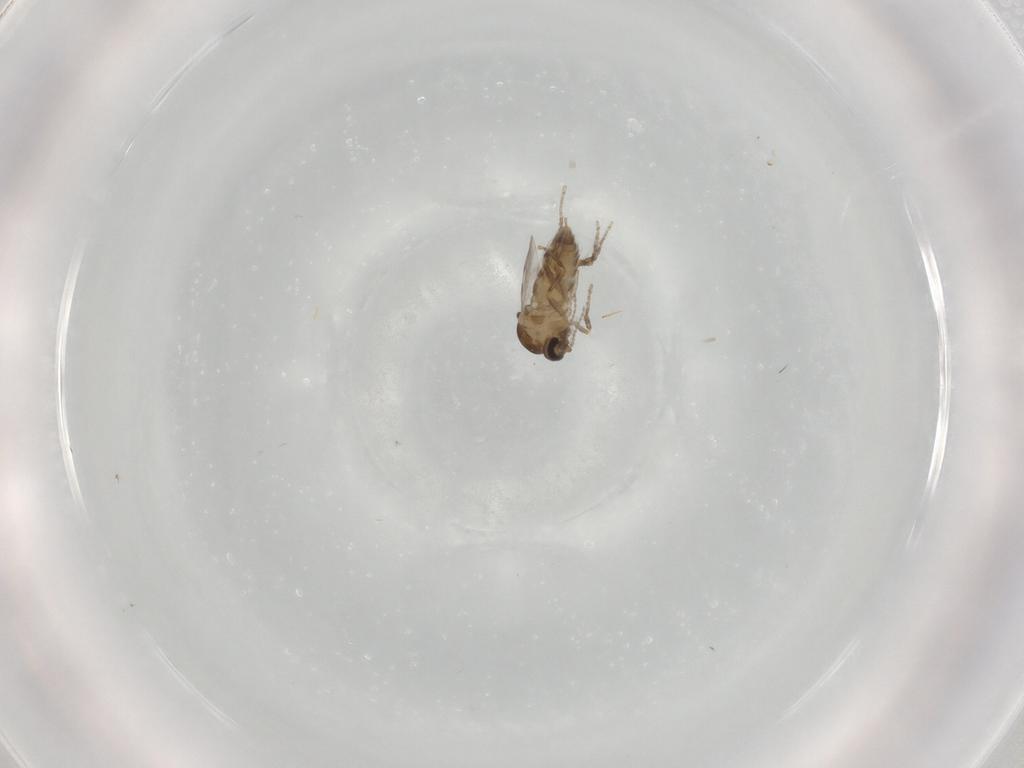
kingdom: Animalia
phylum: Arthropoda
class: Insecta
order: Diptera
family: Ceratopogonidae
